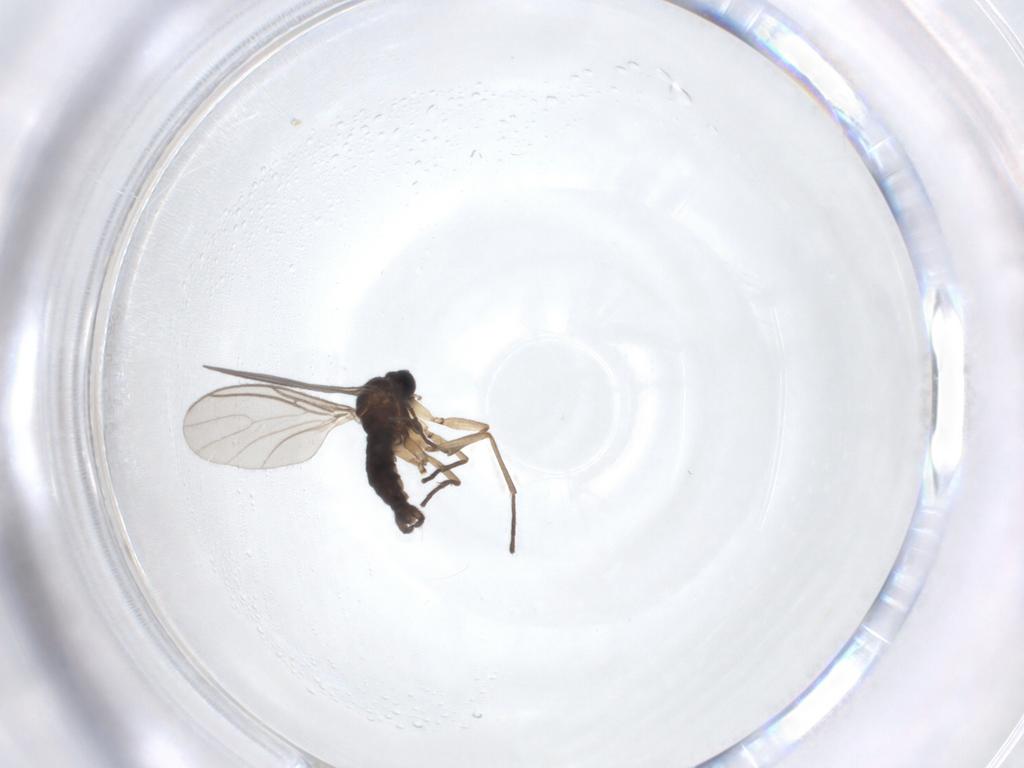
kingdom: Animalia
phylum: Arthropoda
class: Insecta
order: Diptera
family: Sciaridae
